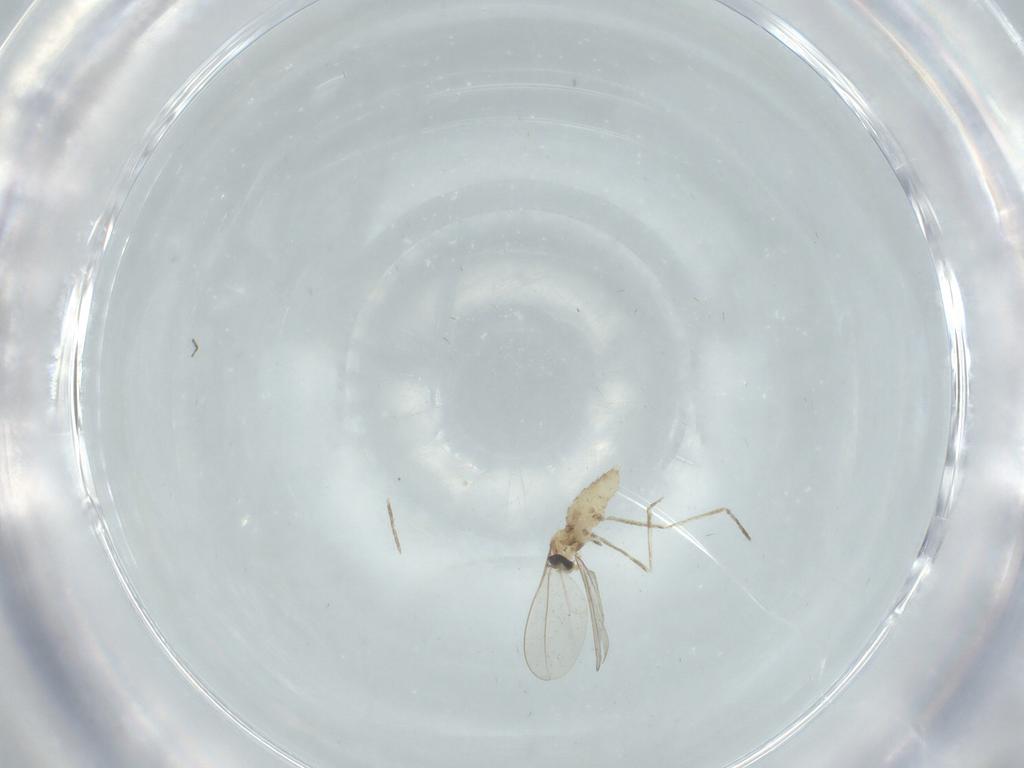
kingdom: Animalia
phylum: Arthropoda
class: Insecta
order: Diptera
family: Cecidomyiidae
